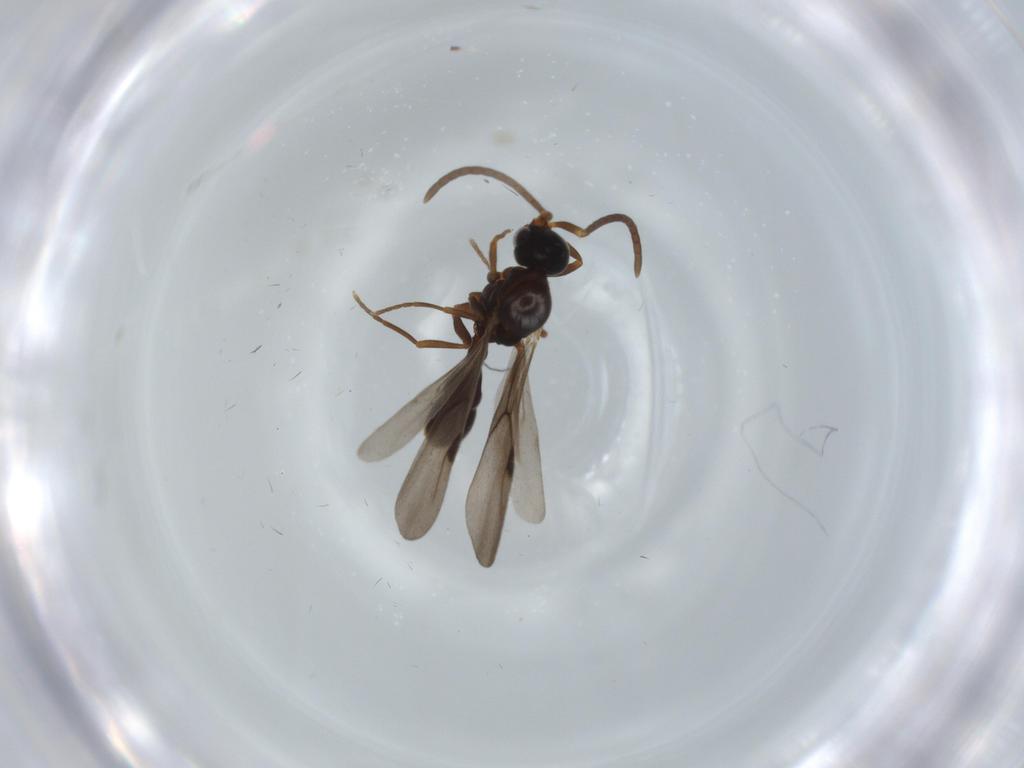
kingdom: Animalia
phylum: Arthropoda
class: Insecta
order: Hymenoptera
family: Formicidae
